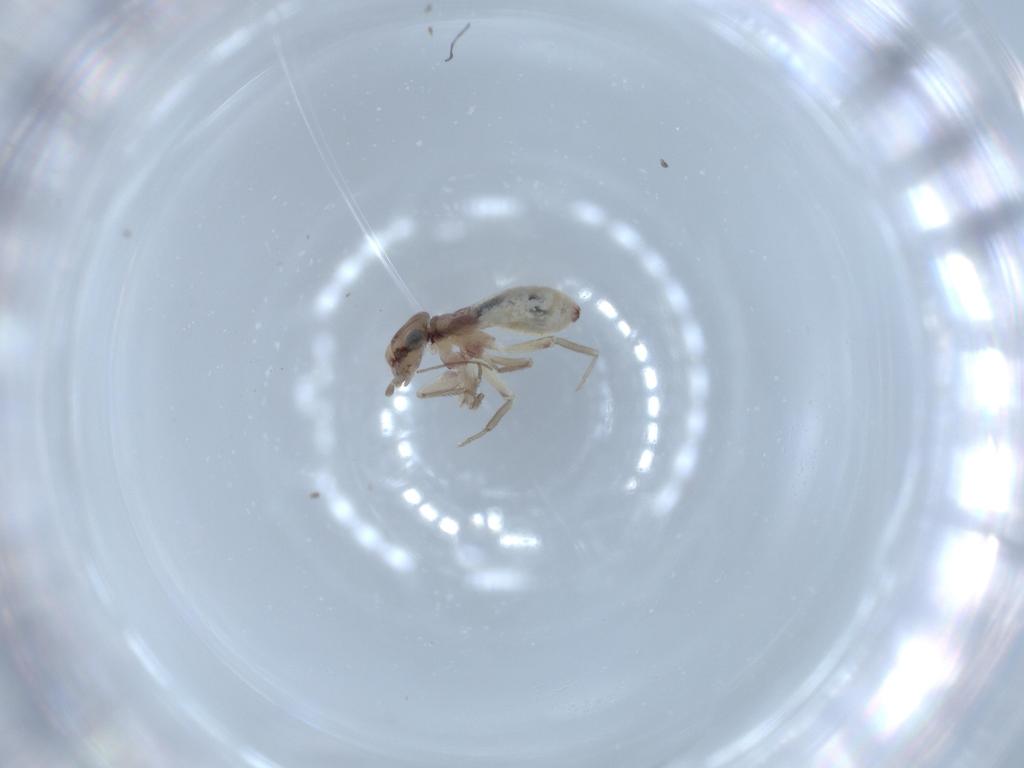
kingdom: Animalia
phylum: Arthropoda
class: Insecta
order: Psocodea
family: Lepidopsocidae
